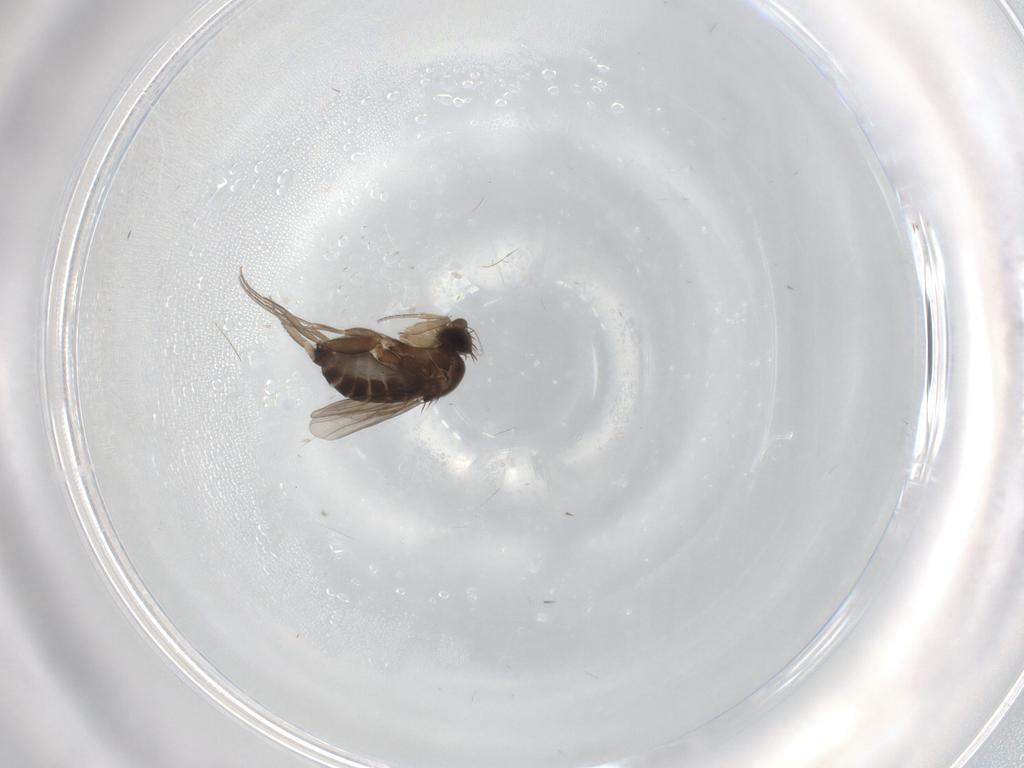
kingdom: Animalia
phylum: Arthropoda
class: Insecta
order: Diptera
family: Phoridae
